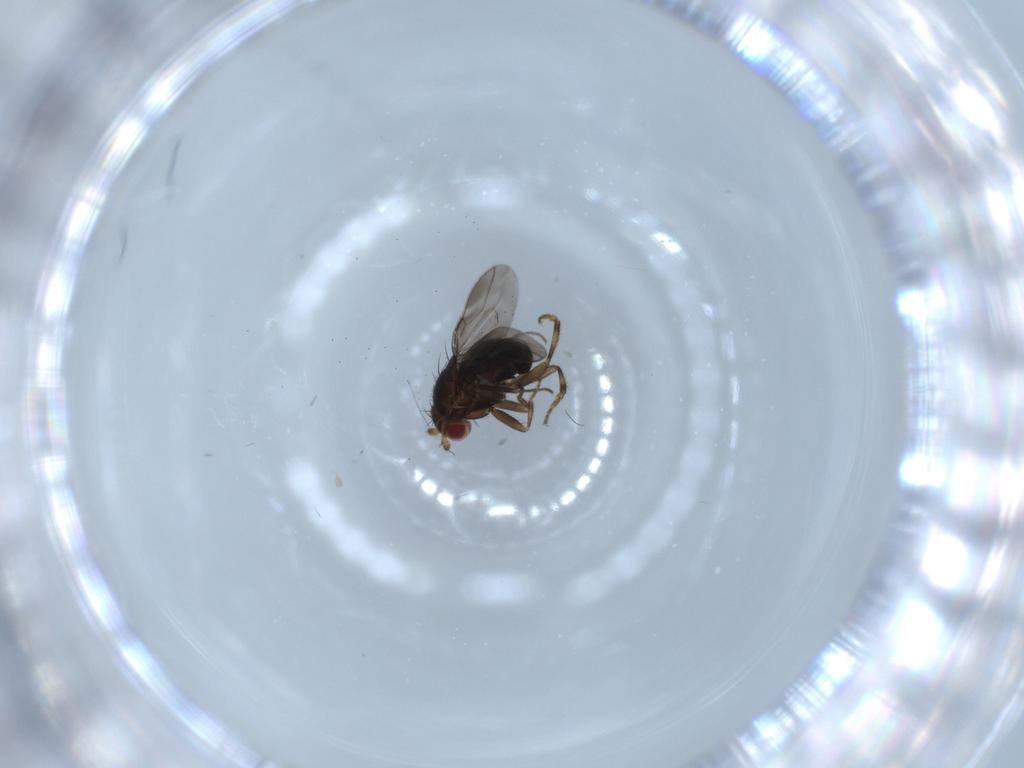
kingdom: Animalia
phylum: Arthropoda
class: Insecta
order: Diptera
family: Sphaeroceridae
